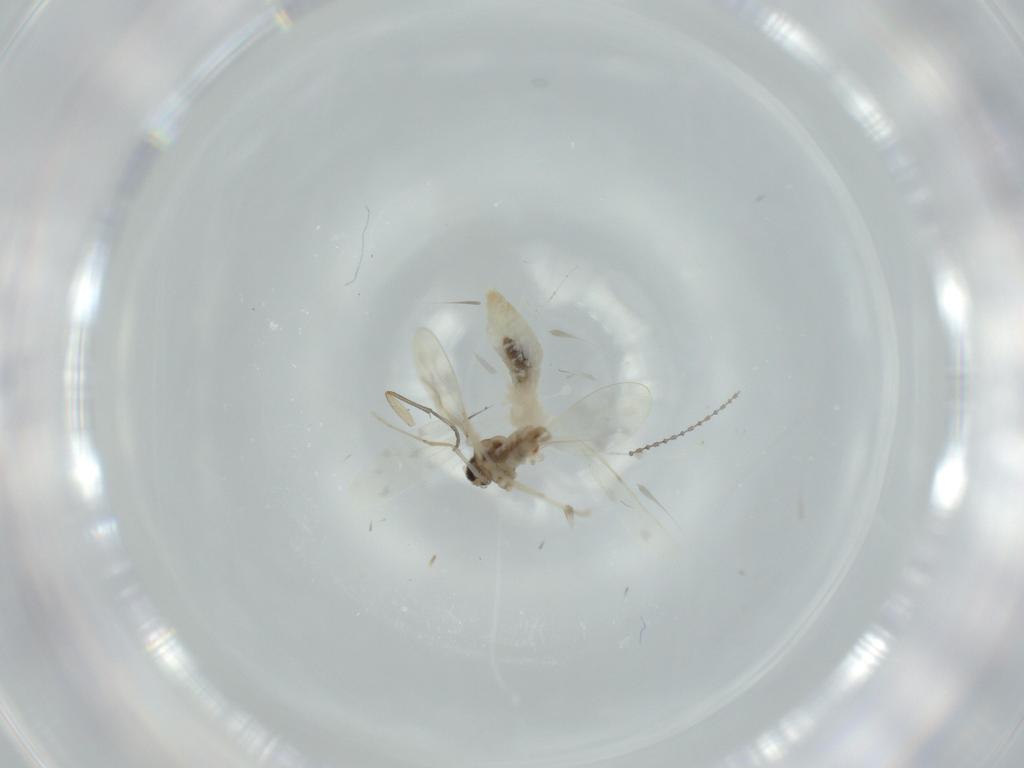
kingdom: Animalia
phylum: Arthropoda
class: Insecta
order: Diptera
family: Cecidomyiidae
